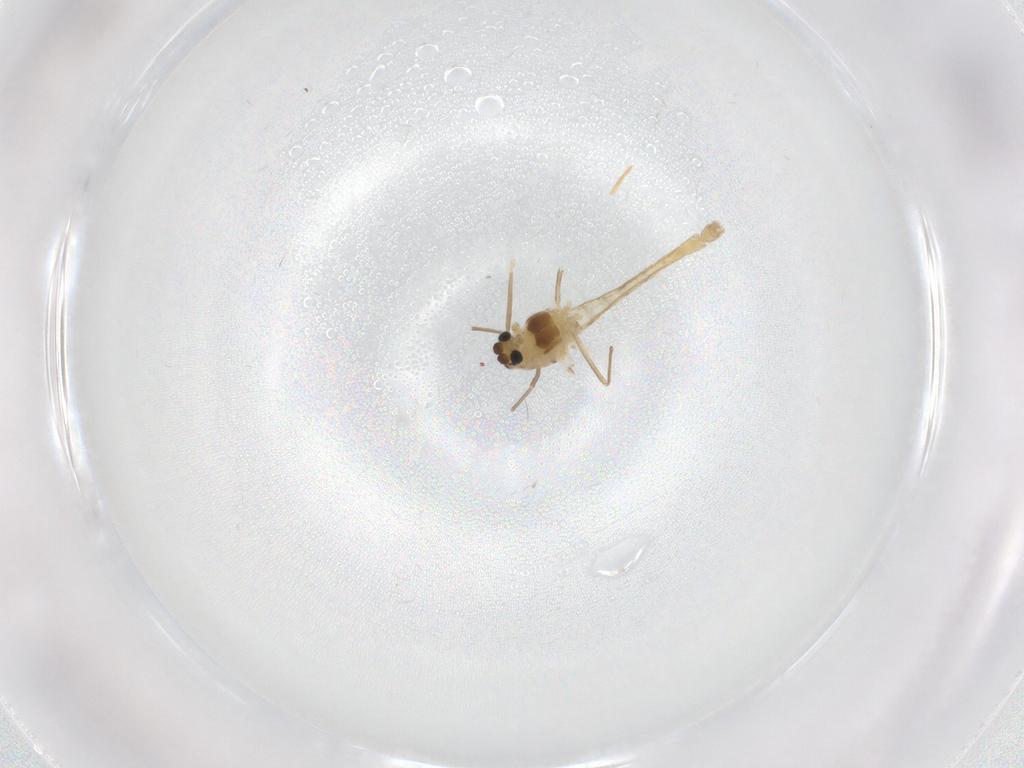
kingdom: Animalia
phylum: Arthropoda
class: Insecta
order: Diptera
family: Chironomidae
